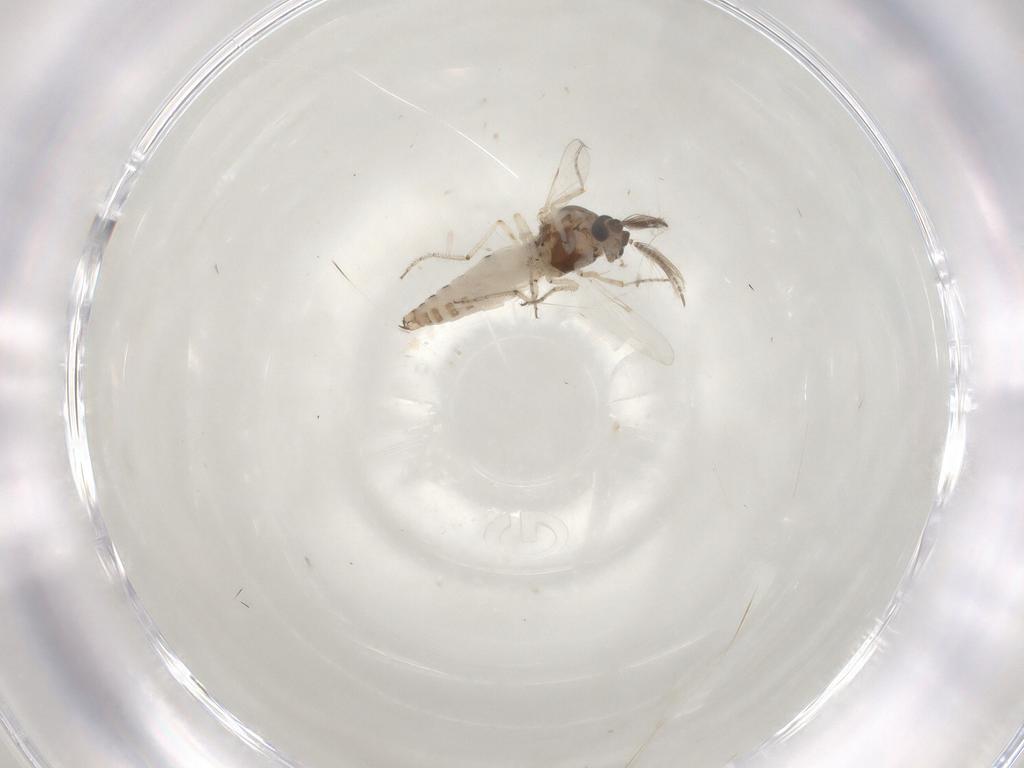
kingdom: Animalia
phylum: Arthropoda
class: Insecta
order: Diptera
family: Ceratopogonidae
